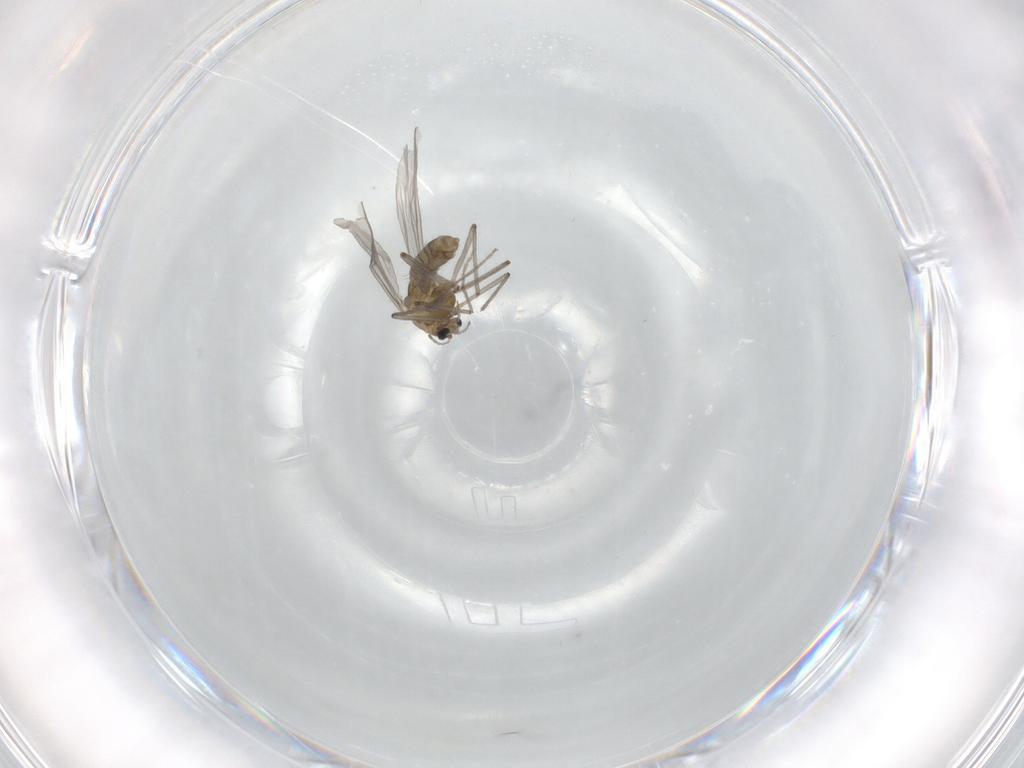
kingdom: Animalia
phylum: Arthropoda
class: Insecta
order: Diptera
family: Chironomidae
